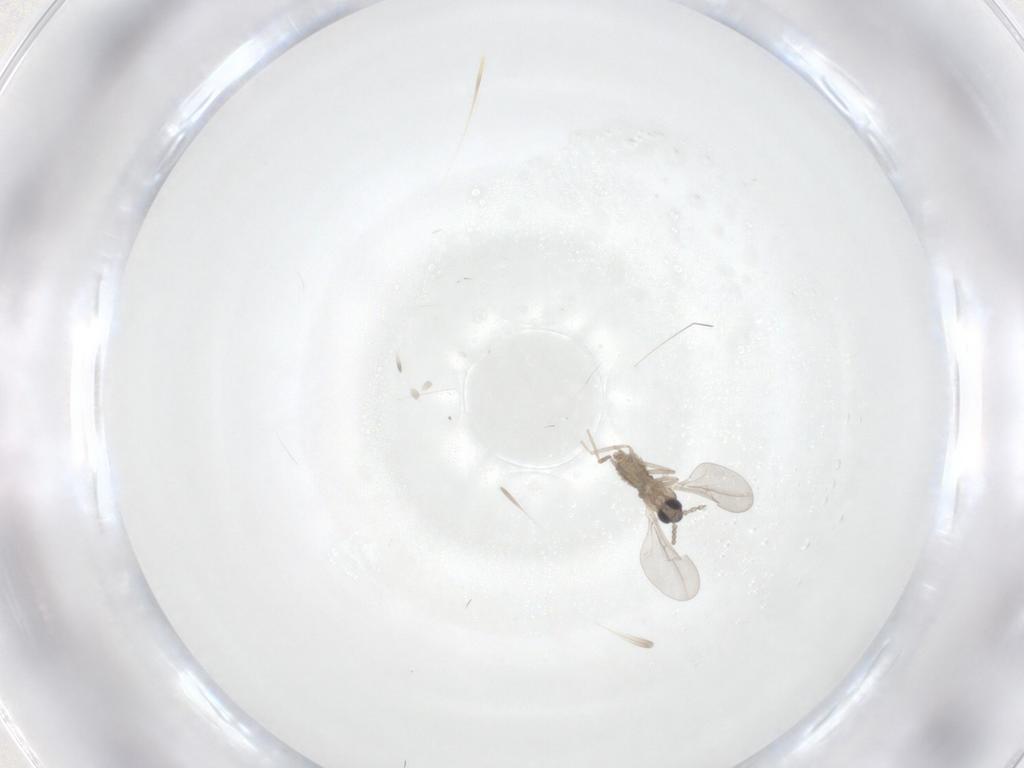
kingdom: Animalia
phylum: Arthropoda
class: Insecta
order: Diptera
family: Cecidomyiidae
